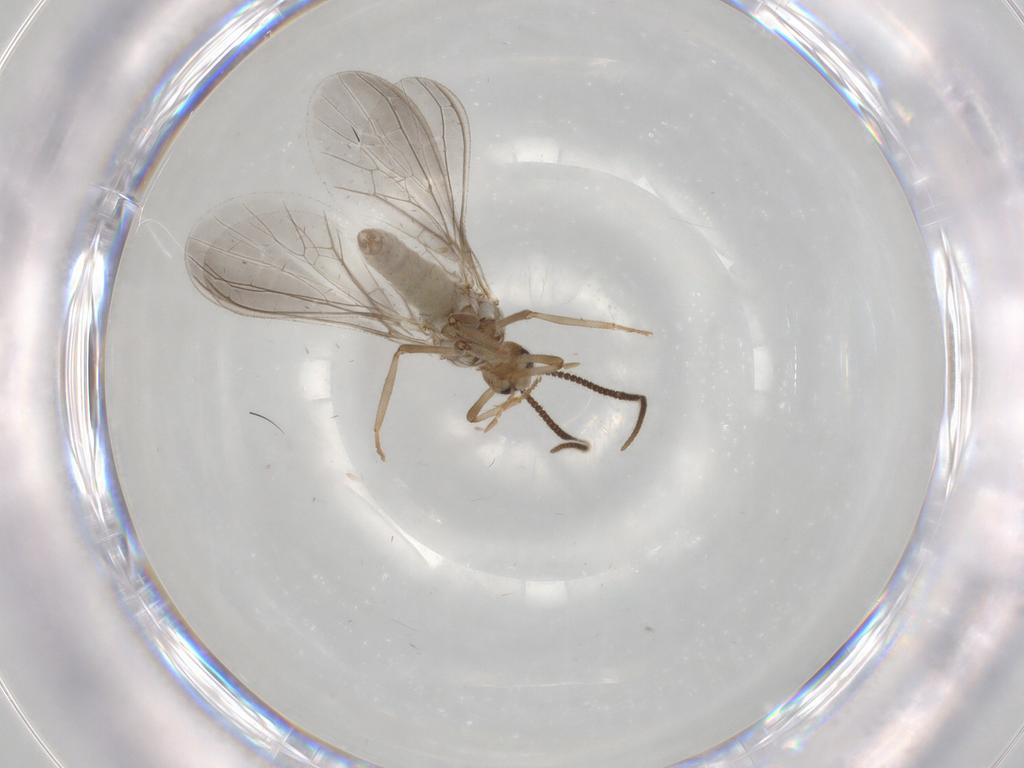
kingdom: Animalia
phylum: Arthropoda
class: Insecta
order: Neuroptera
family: Coniopterygidae
